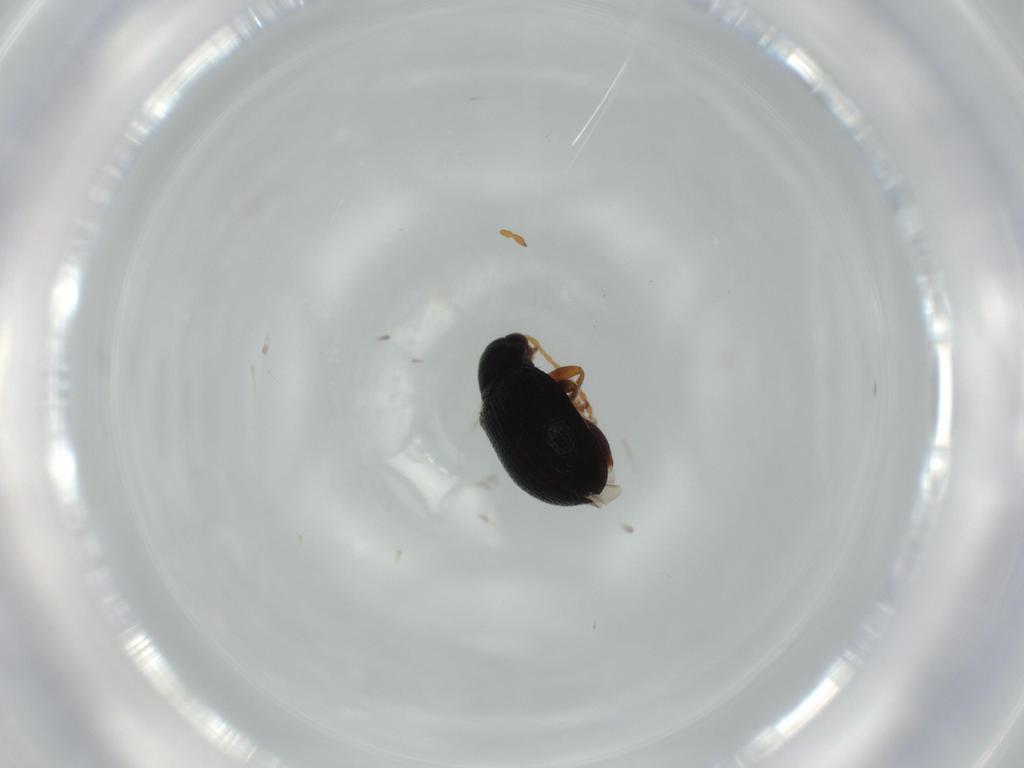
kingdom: Animalia
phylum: Arthropoda
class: Insecta
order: Coleoptera
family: Chrysomelidae
